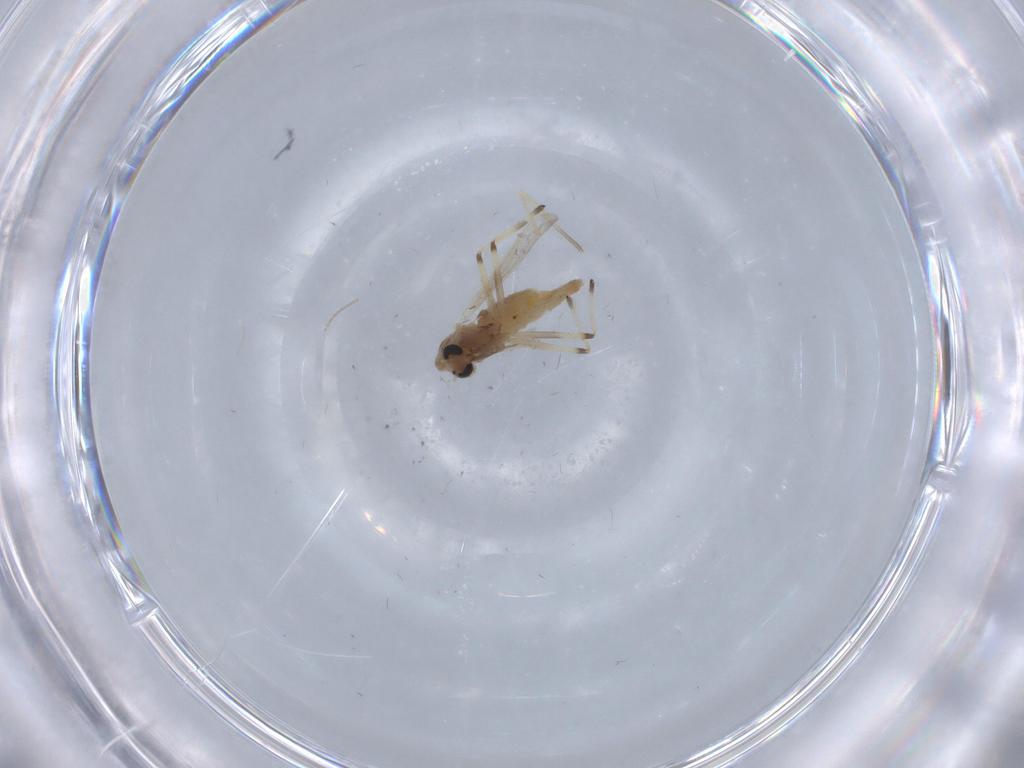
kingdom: Animalia
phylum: Arthropoda
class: Insecta
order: Diptera
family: Chironomidae
